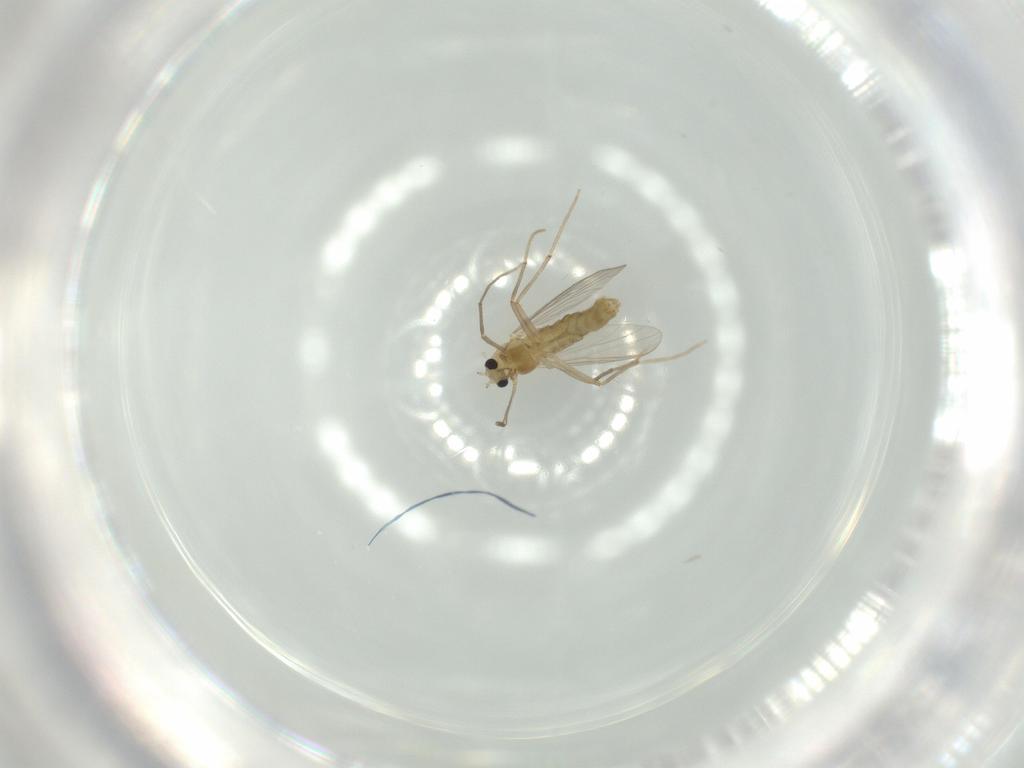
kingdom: Animalia
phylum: Arthropoda
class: Insecta
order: Diptera
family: Chironomidae
